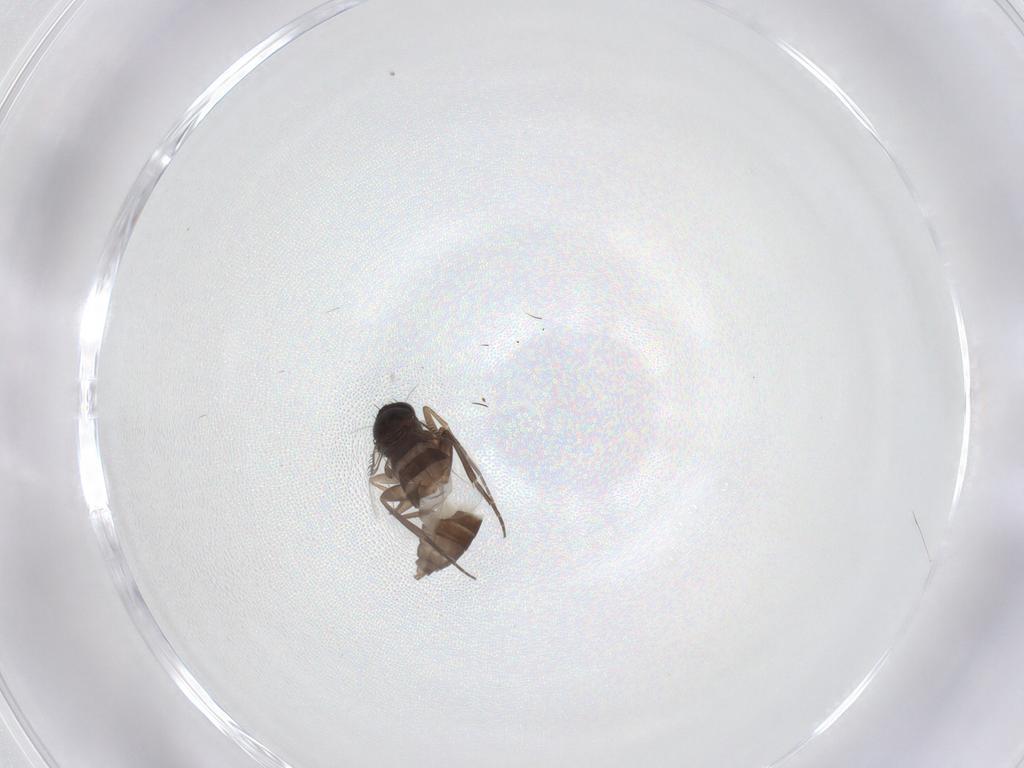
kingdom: Animalia
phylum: Arthropoda
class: Insecta
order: Diptera
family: Phoridae
